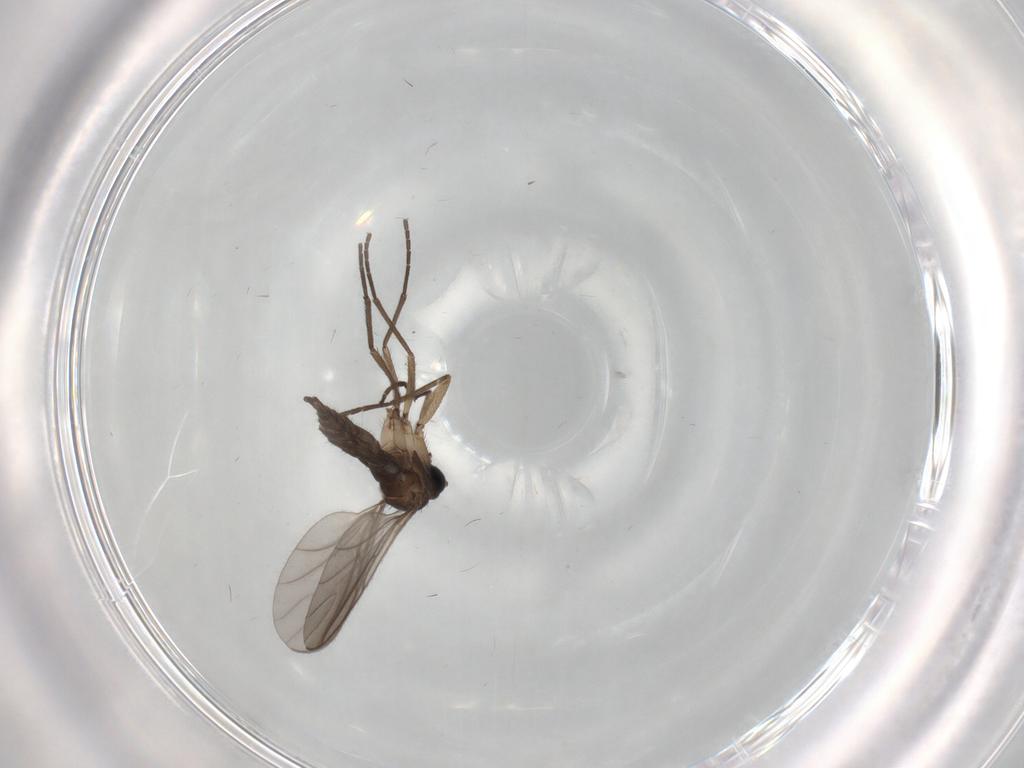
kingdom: Animalia
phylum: Arthropoda
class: Insecta
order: Diptera
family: Sciaridae
